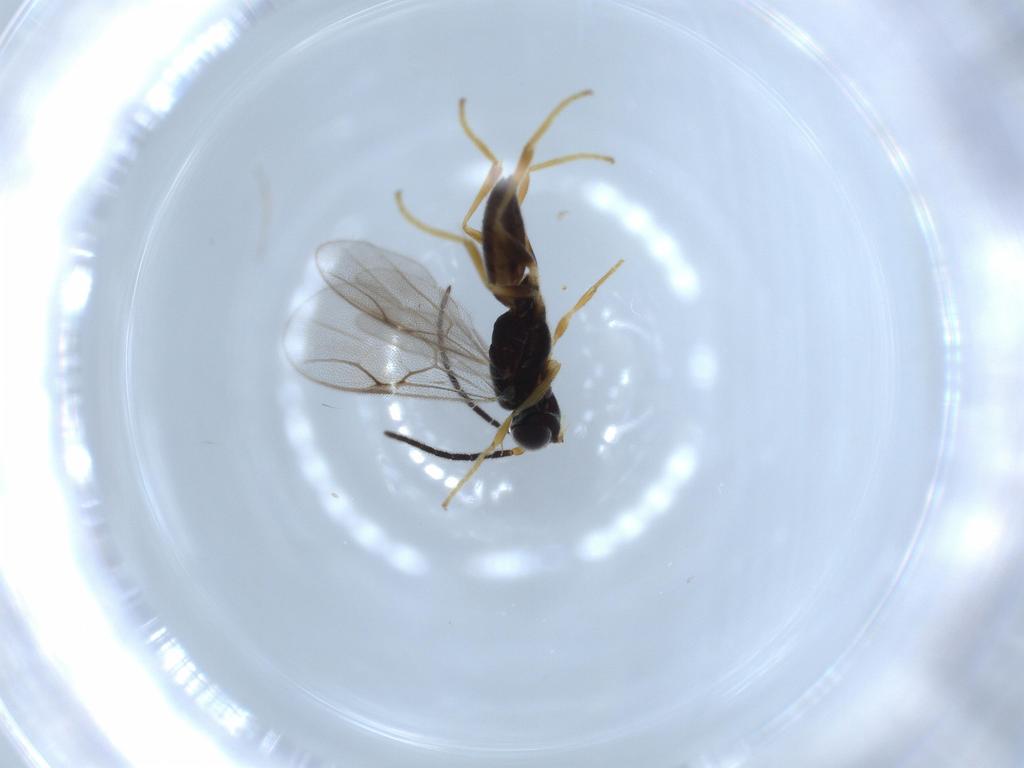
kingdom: Animalia
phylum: Arthropoda
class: Insecta
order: Hymenoptera
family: Dryinidae
